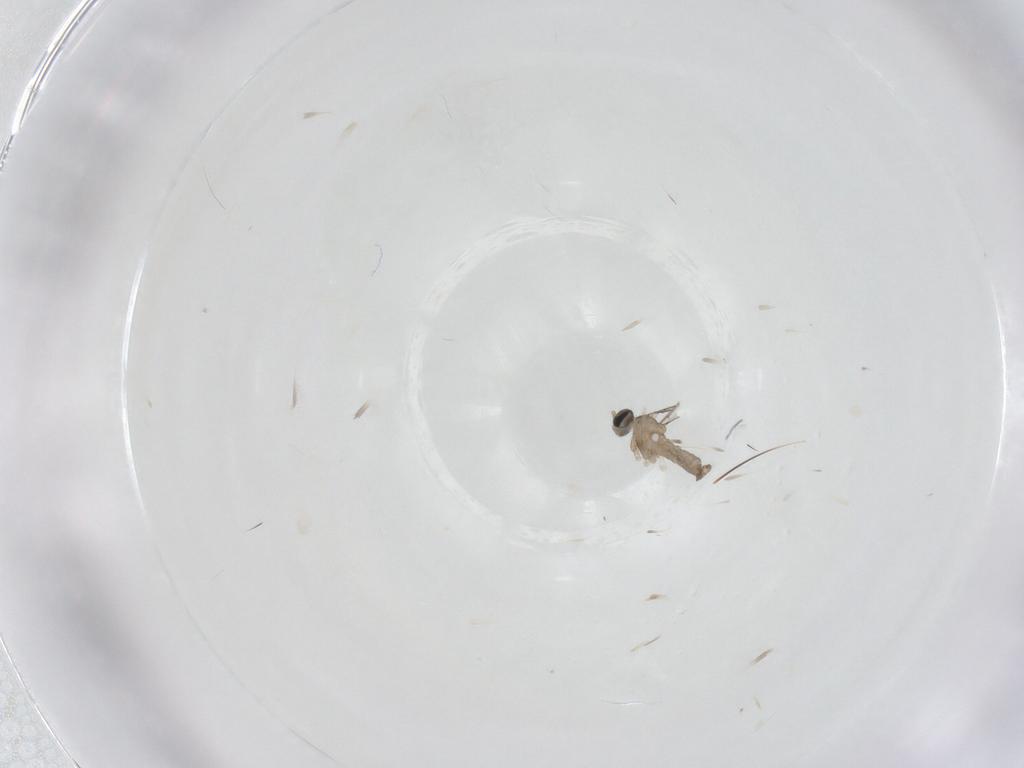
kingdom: Animalia
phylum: Arthropoda
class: Insecta
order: Diptera
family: Cecidomyiidae
